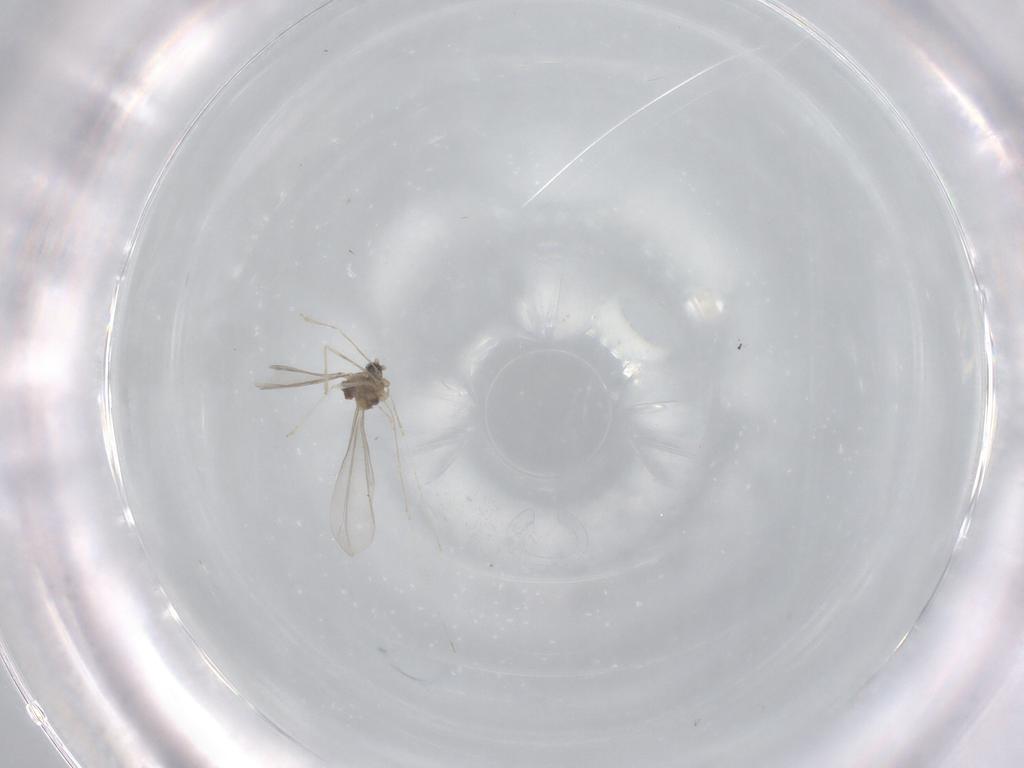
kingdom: Animalia
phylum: Arthropoda
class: Insecta
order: Diptera
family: Cecidomyiidae
